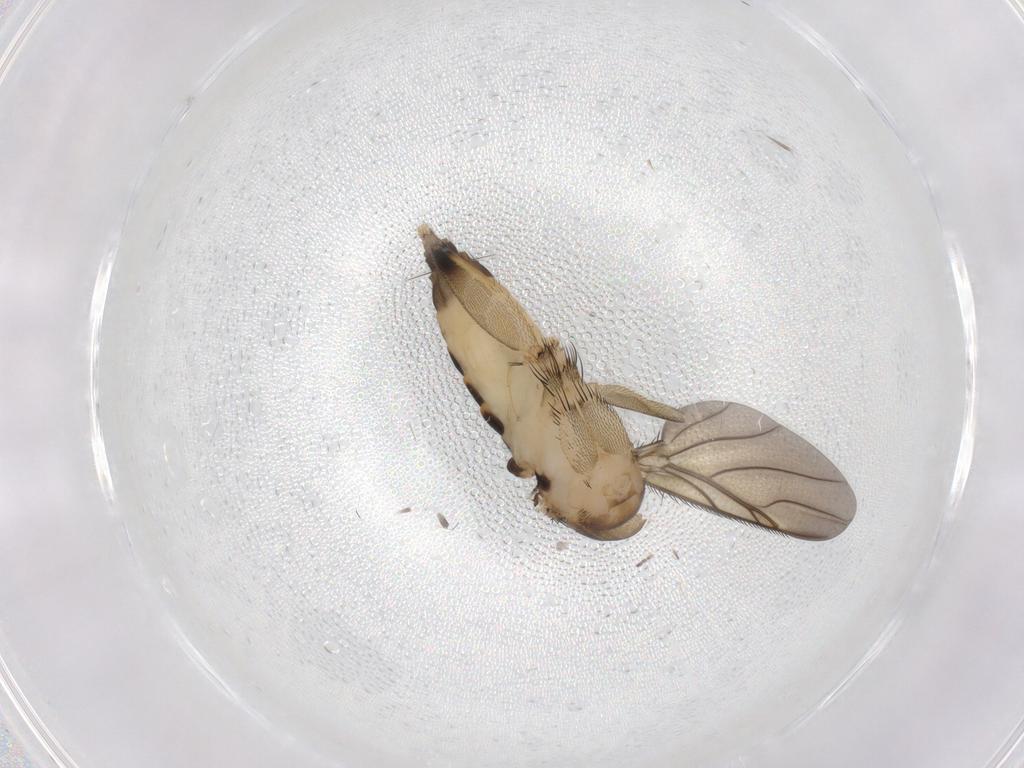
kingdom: Animalia
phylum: Arthropoda
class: Insecta
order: Diptera
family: Phoridae
